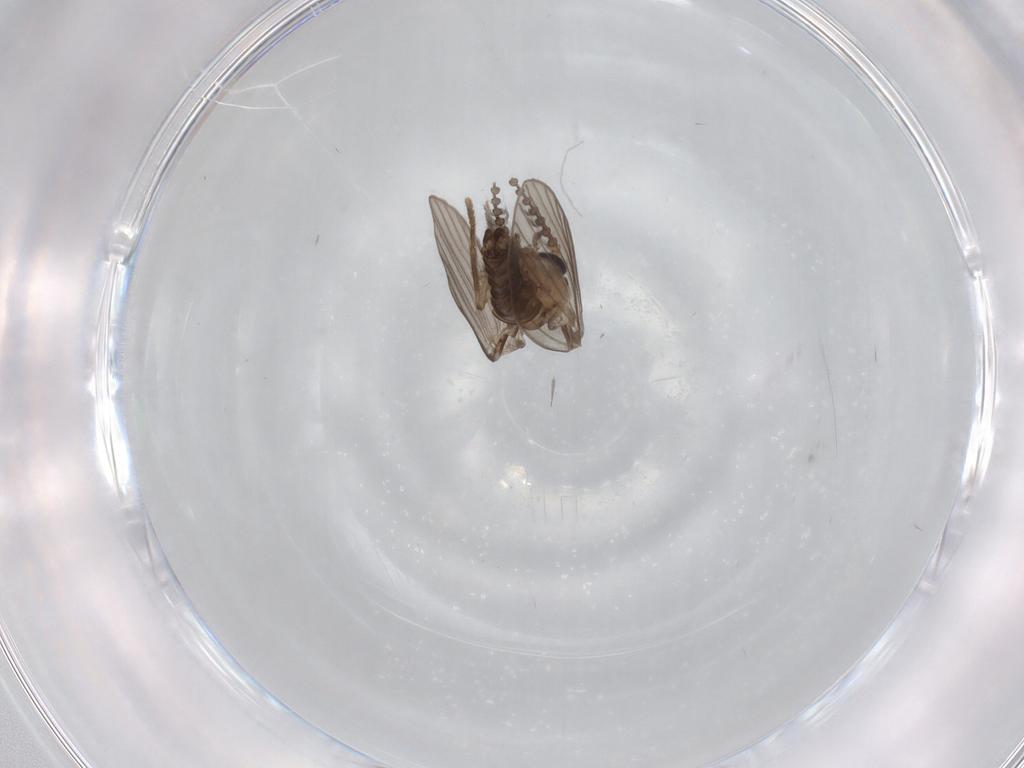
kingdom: Animalia
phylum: Arthropoda
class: Insecta
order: Diptera
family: Psychodidae
